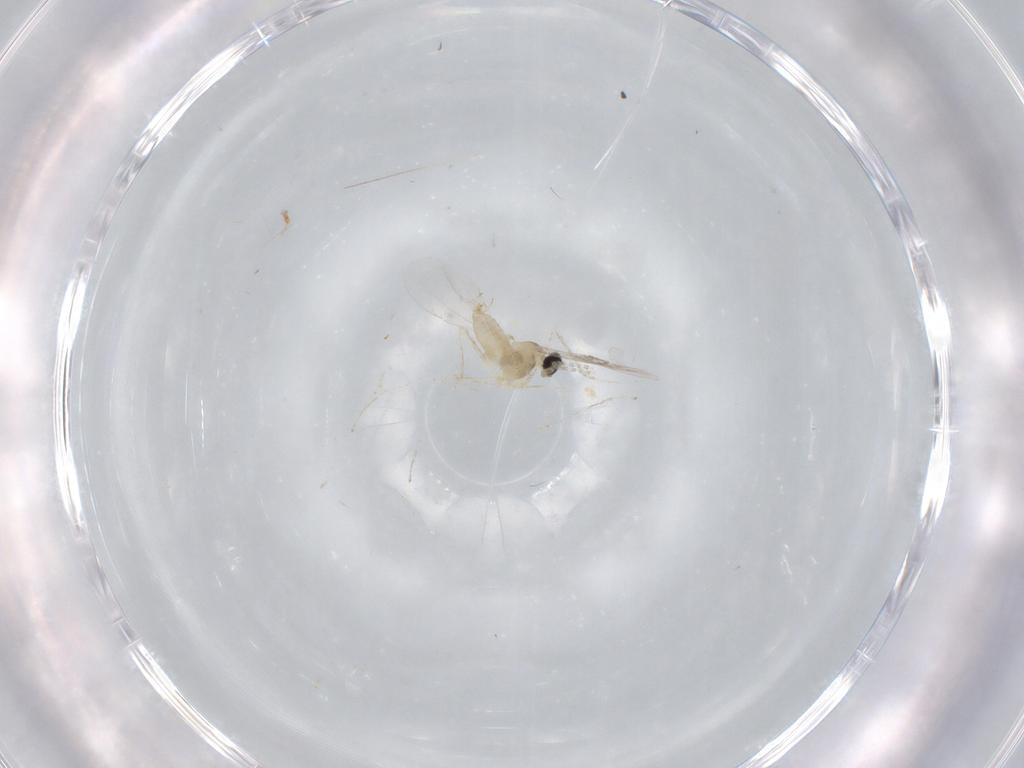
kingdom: Animalia
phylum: Arthropoda
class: Insecta
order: Diptera
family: Cecidomyiidae
